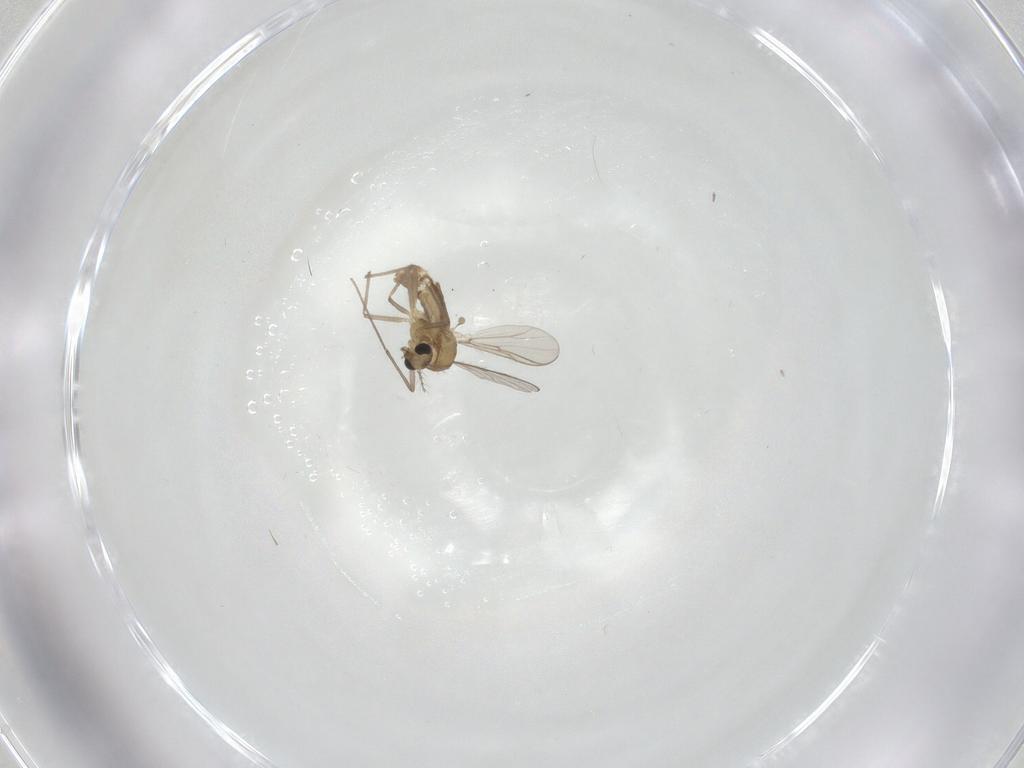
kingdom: Animalia
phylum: Arthropoda
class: Insecta
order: Diptera
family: Chironomidae
